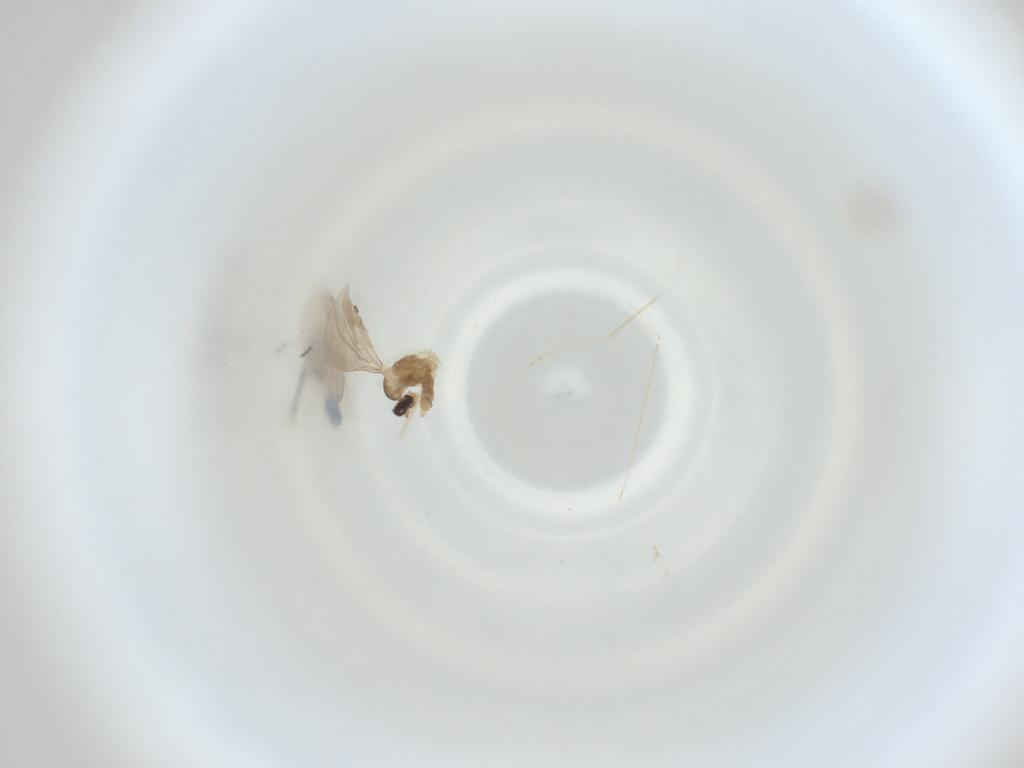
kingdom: Animalia
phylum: Arthropoda
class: Insecta
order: Diptera
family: Cecidomyiidae
